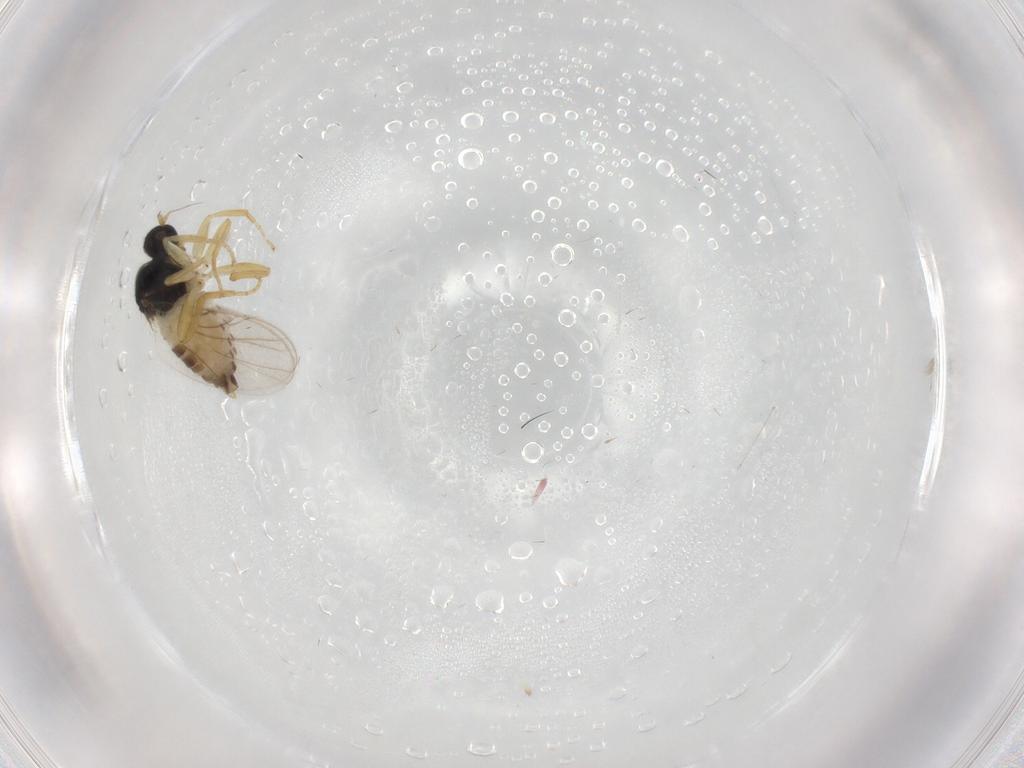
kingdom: Animalia
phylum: Arthropoda
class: Insecta
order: Diptera
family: Hybotidae
